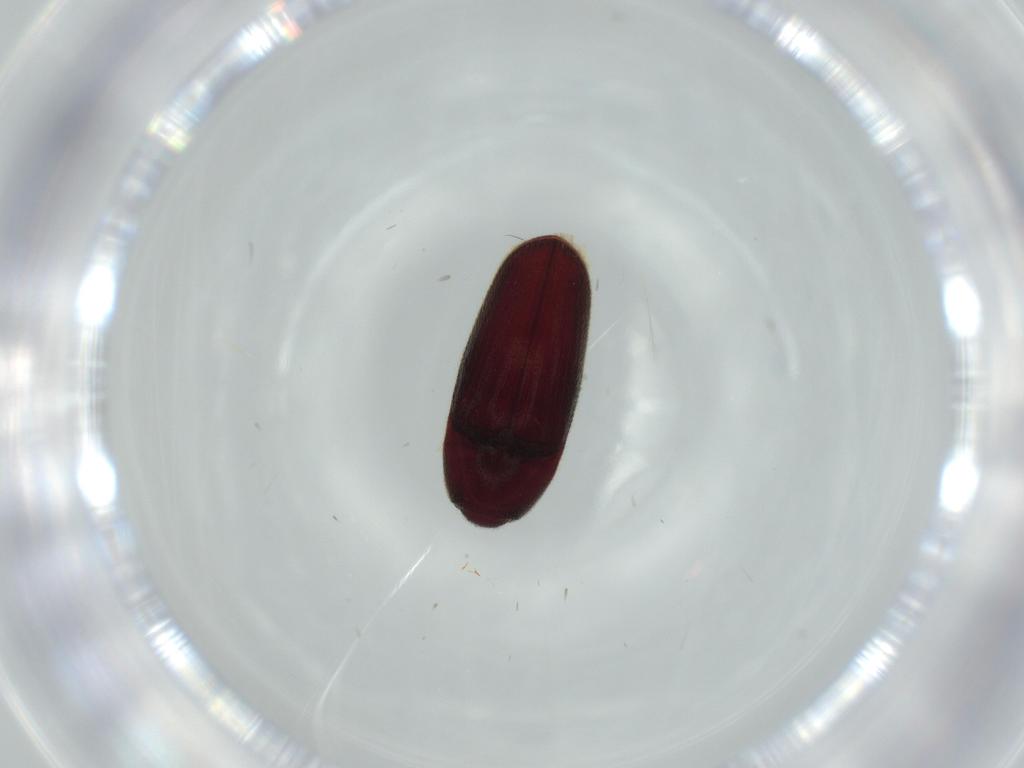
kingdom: Animalia
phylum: Arthropoda
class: Insecta
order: Coleoptera
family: Throscidae
